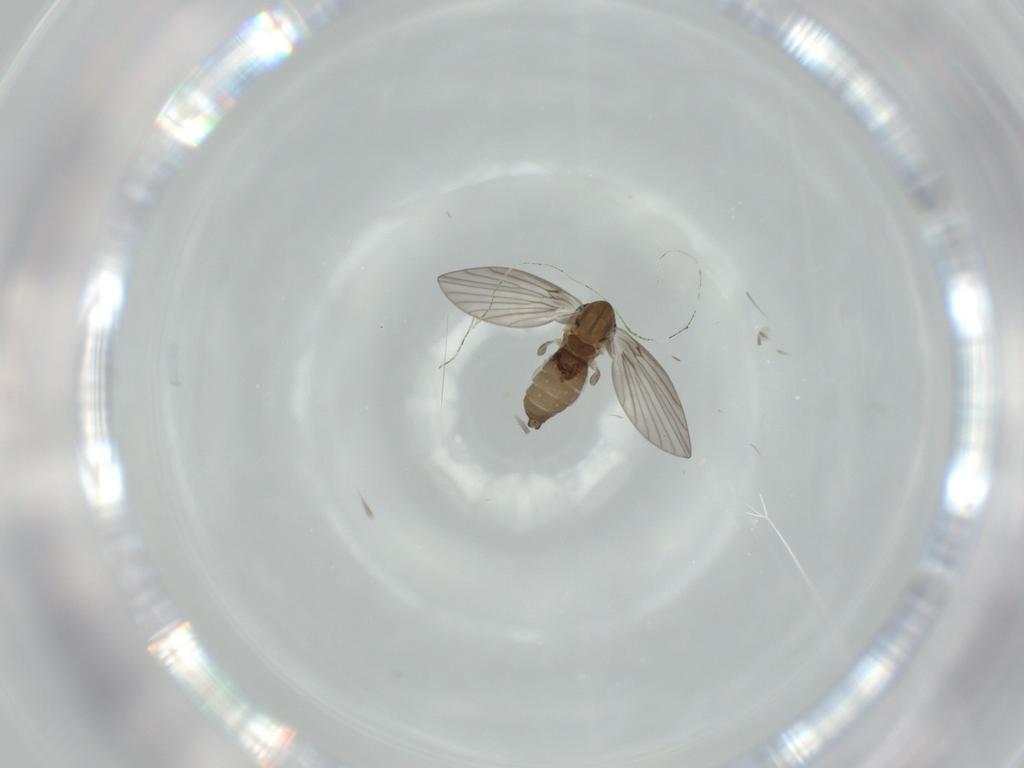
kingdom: Animalia
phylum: Arthropoda
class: Insecta
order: Diptera
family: Psychodidae
